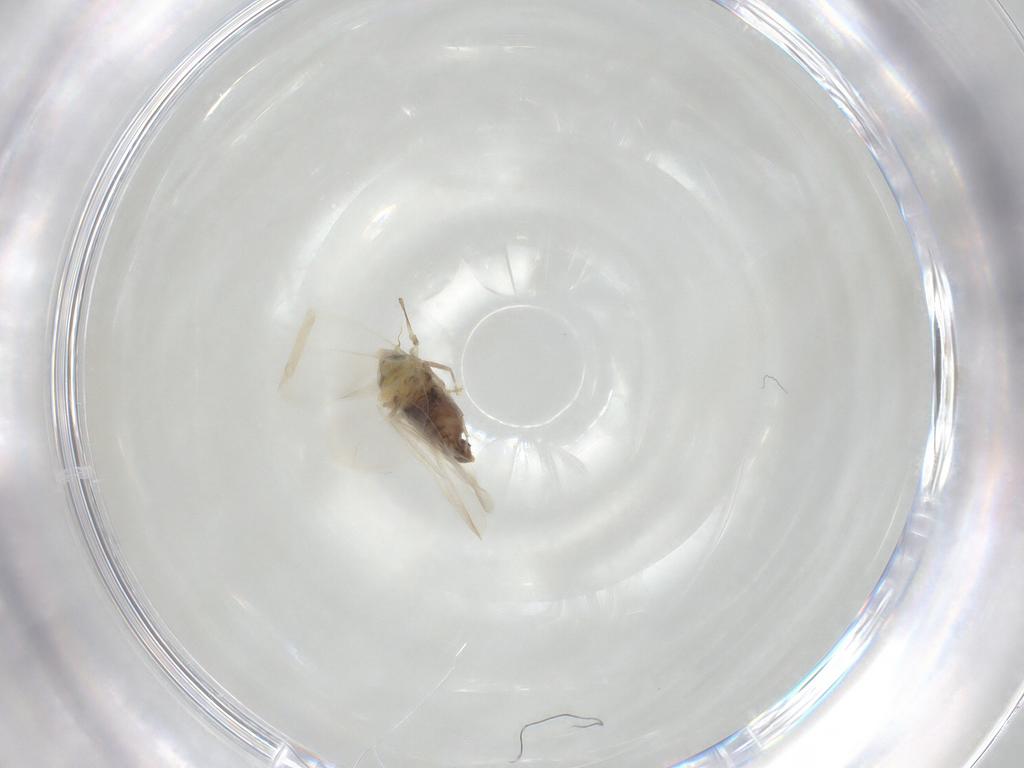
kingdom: Animalia
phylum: Arthropoda
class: Insecta
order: Hemiptera
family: Aleyrodidae
